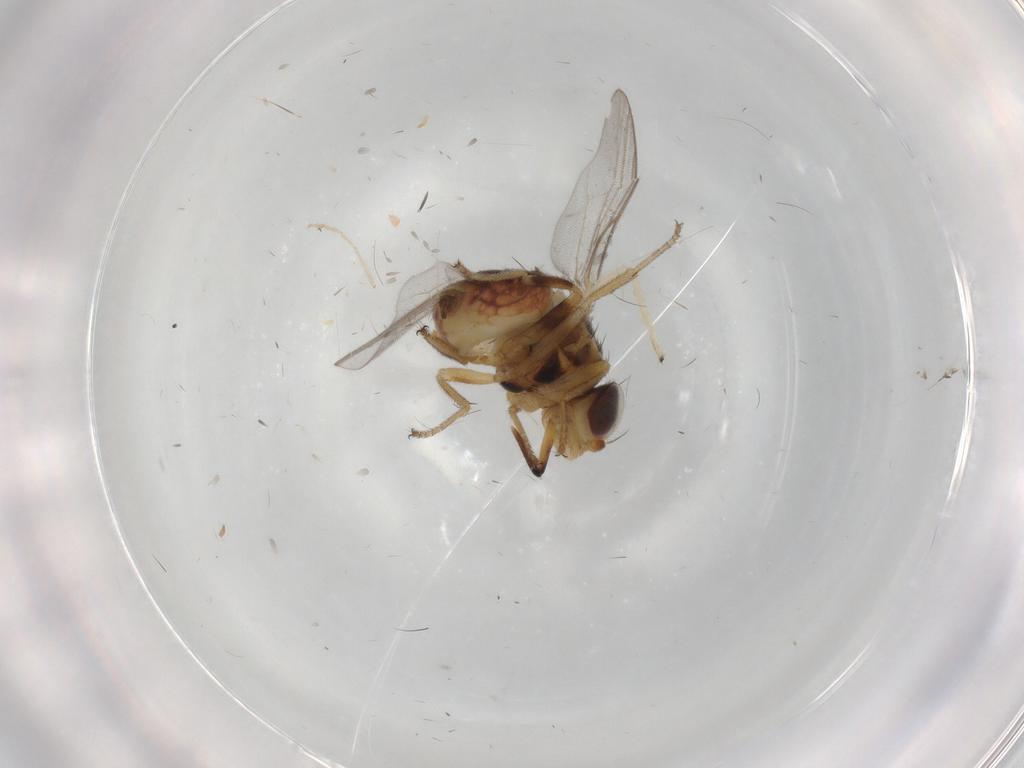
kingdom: Animalia
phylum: Arthropoda
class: Insecta
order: Diptera
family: Chloropidae
